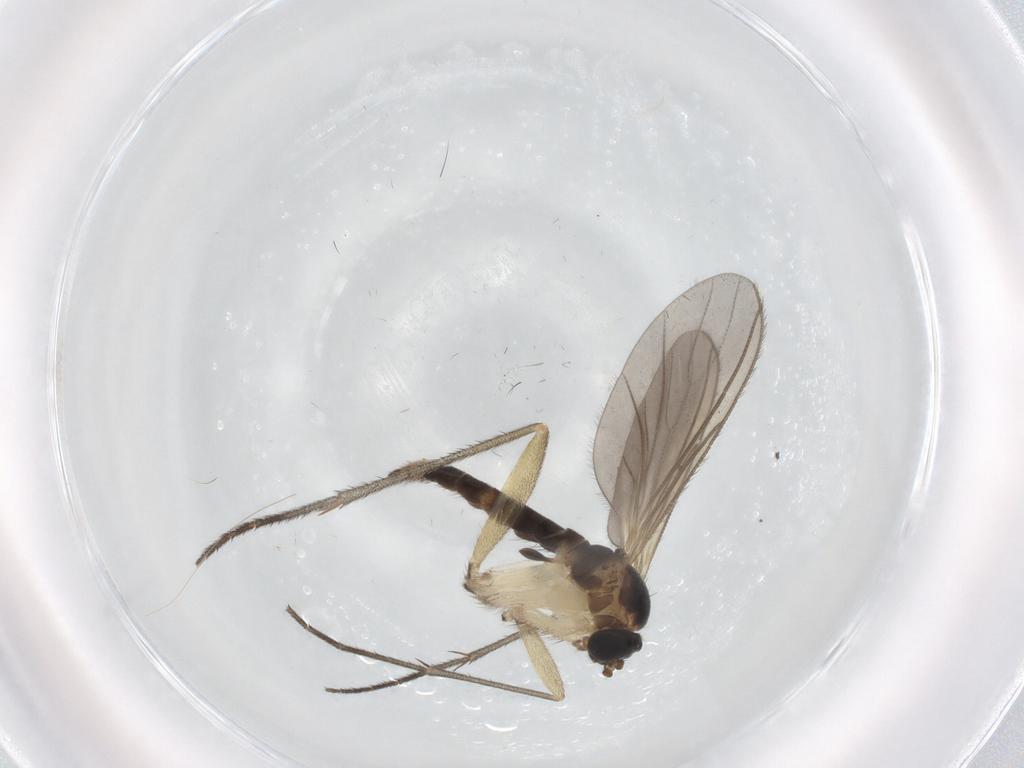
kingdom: Animalia
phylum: Arthropoda
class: Insecta
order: Diptera
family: Sciaridae
